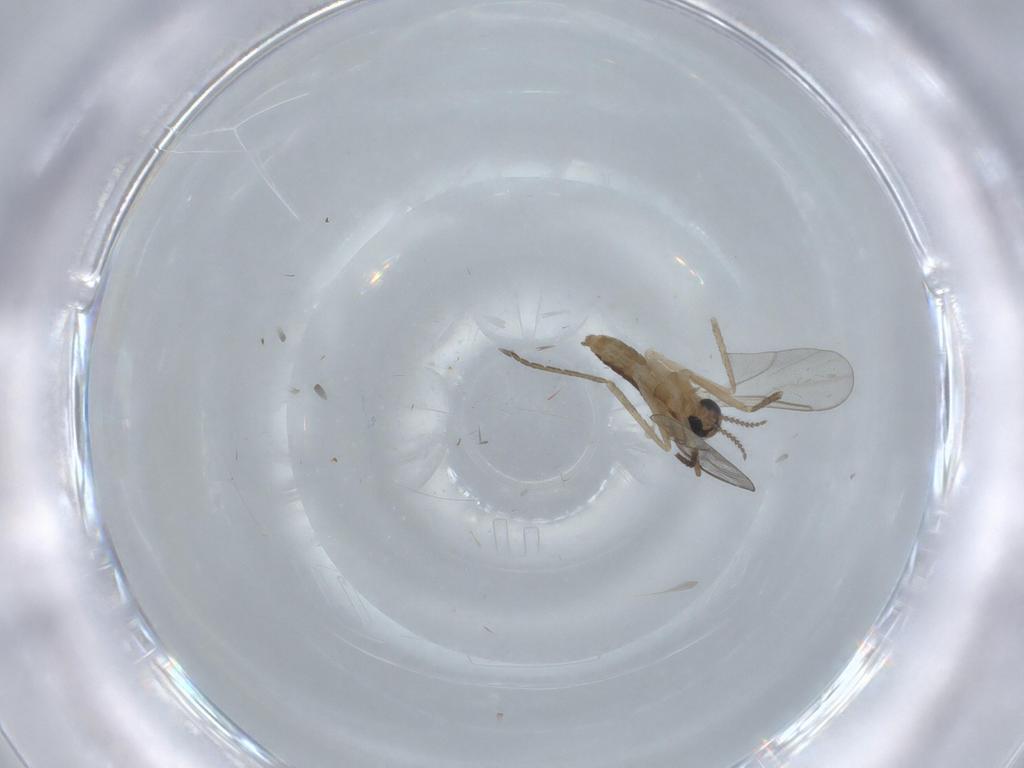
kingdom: Animalia
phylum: Arthropoda
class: Insecta
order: Diptera
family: Cecidomyiidae
